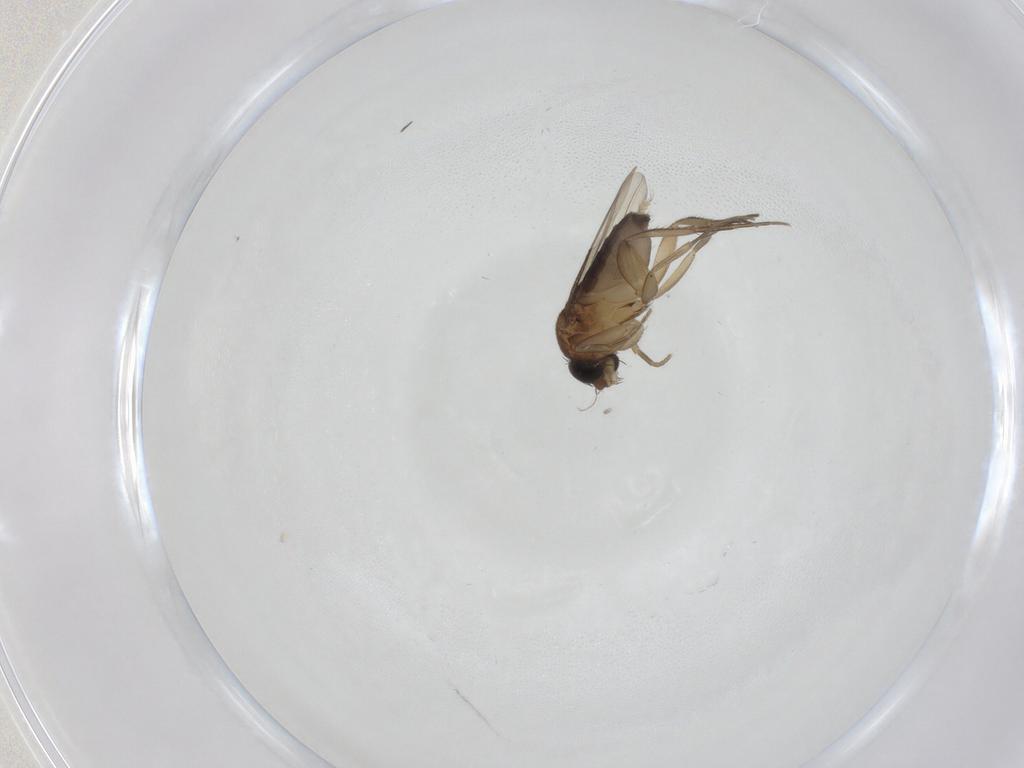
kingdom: Animalia
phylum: Arthropoda
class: Insecta
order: Diptera
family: Phoridae
